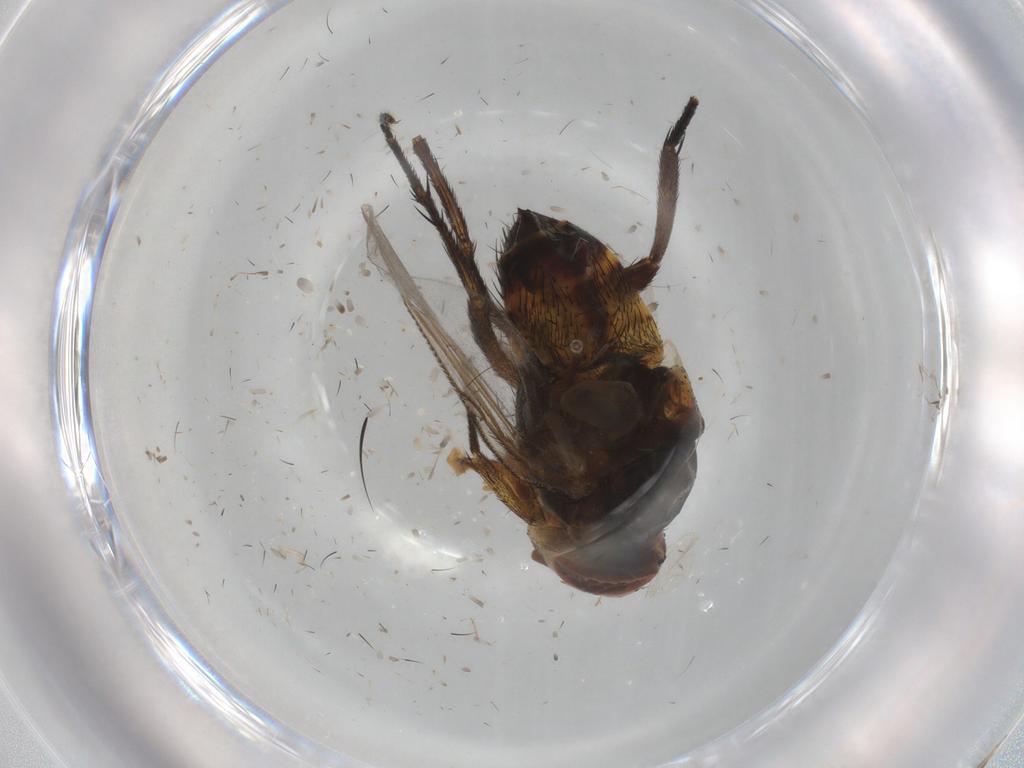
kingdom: Animalia
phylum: Arthropoda
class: Insecta
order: Diptera
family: Glossinidae
